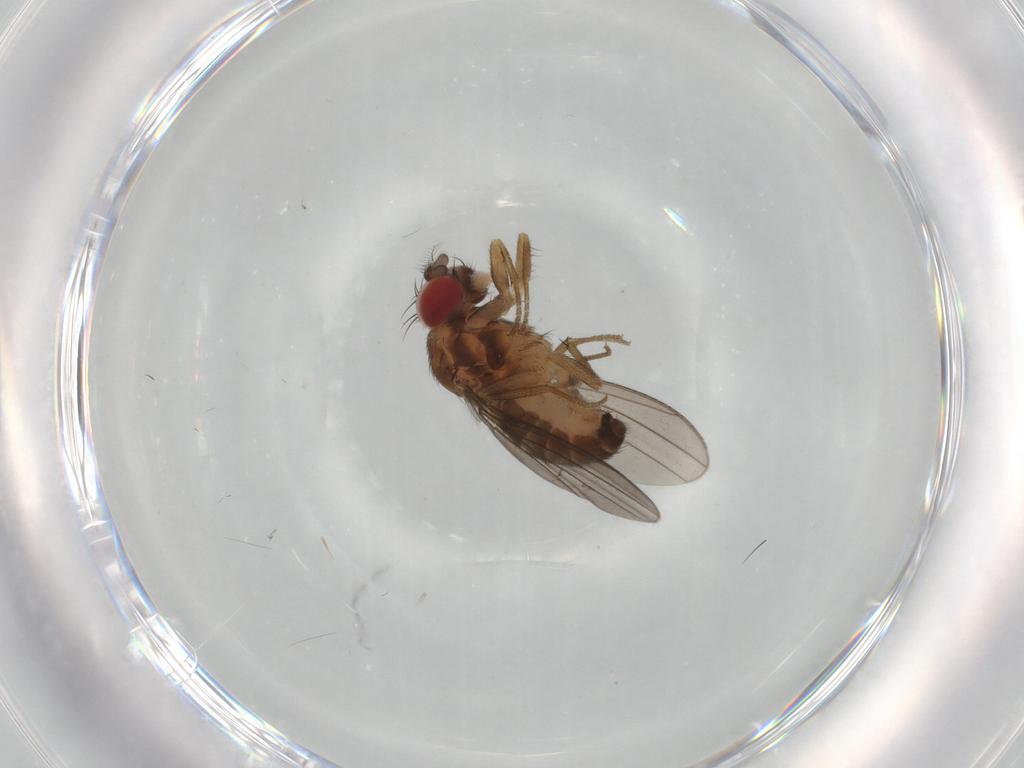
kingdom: Animalia
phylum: Arthropoda
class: Insecta
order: Diptera
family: Drosophilidae
